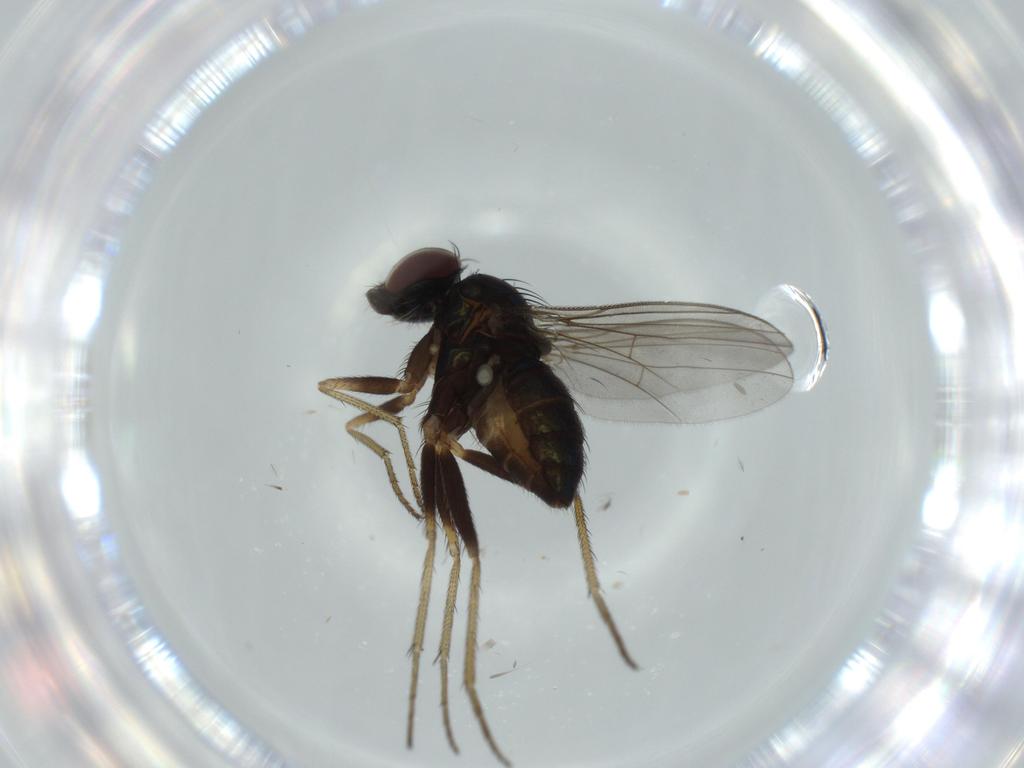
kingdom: Animalia
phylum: Arthropoda
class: Insecta
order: Diptera
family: Dolichopodidae
